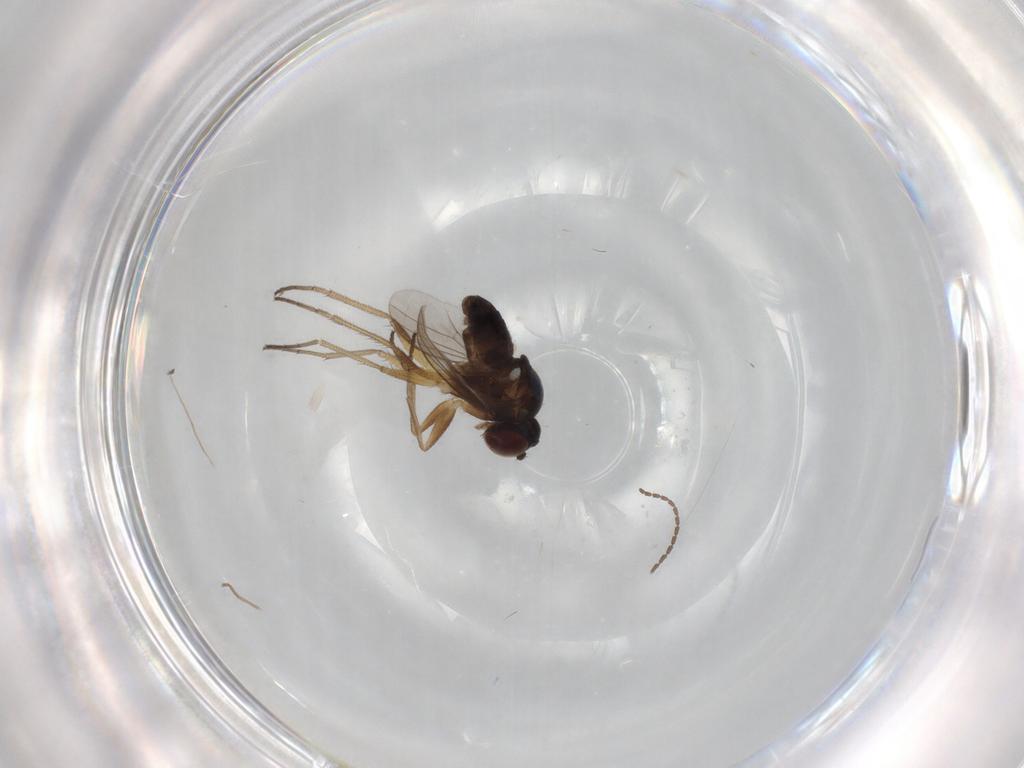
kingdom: Animalia
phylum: Arthropoda
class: Insecta
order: Diptera
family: Dolichopodidae
